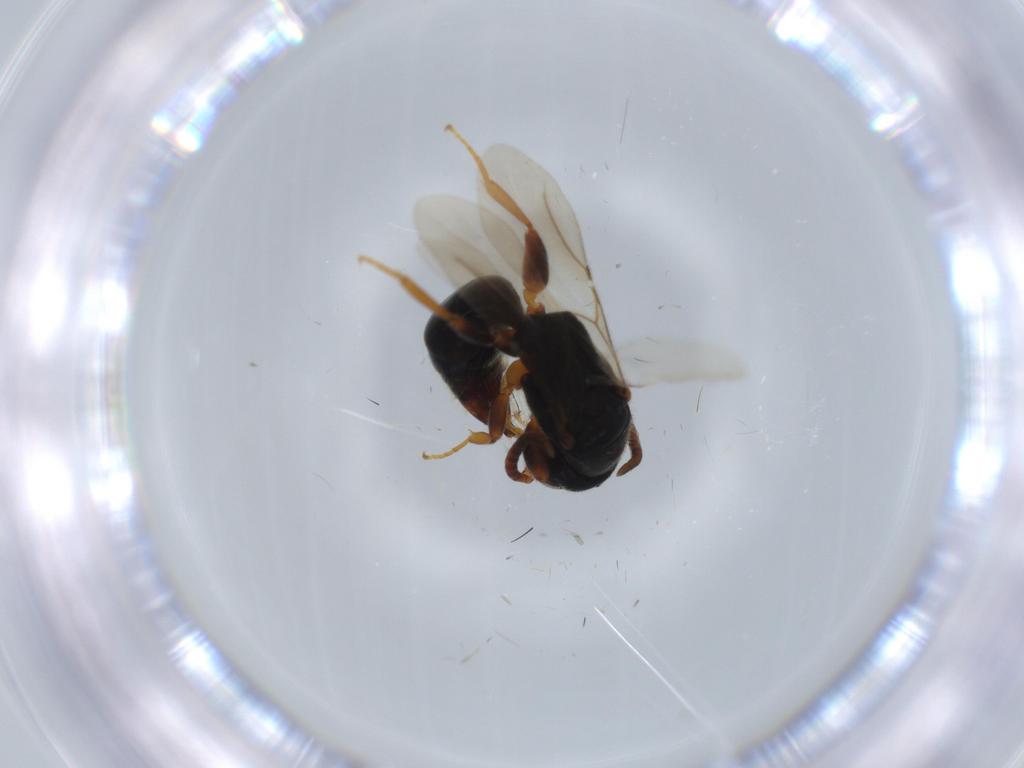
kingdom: Animalia
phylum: Arthropoda
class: Insecta
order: Hymenoptera
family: Bethylidae
